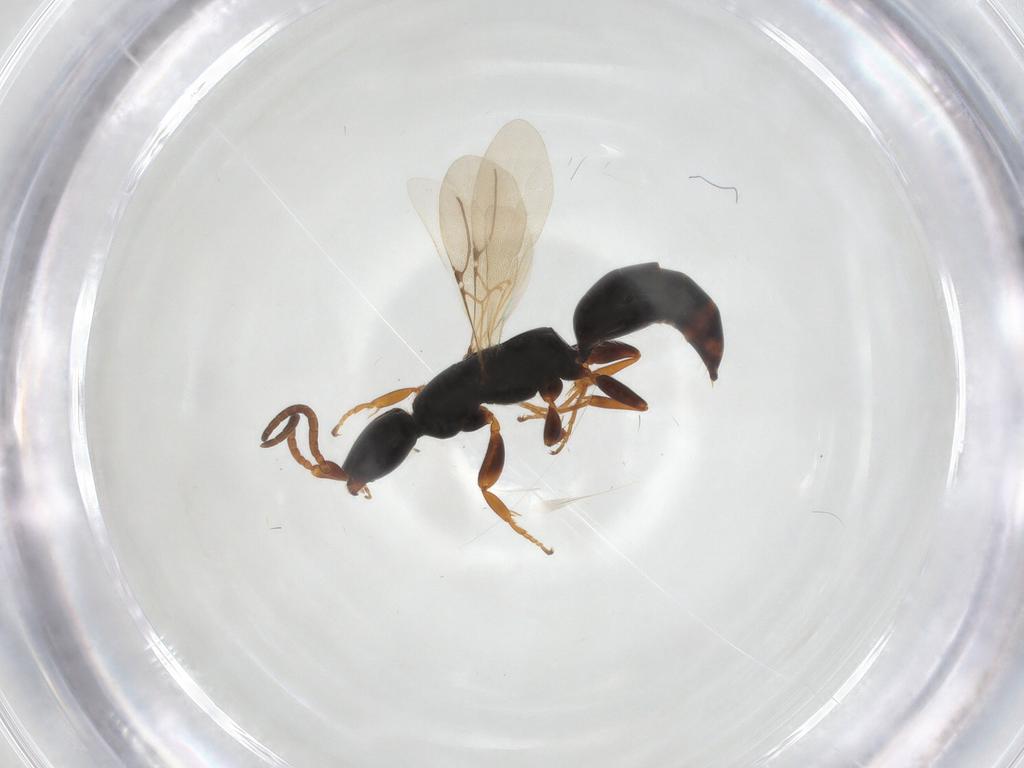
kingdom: Animalia
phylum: Arthropoda
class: Insecta
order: Hymenoptera
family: Bethylidae
